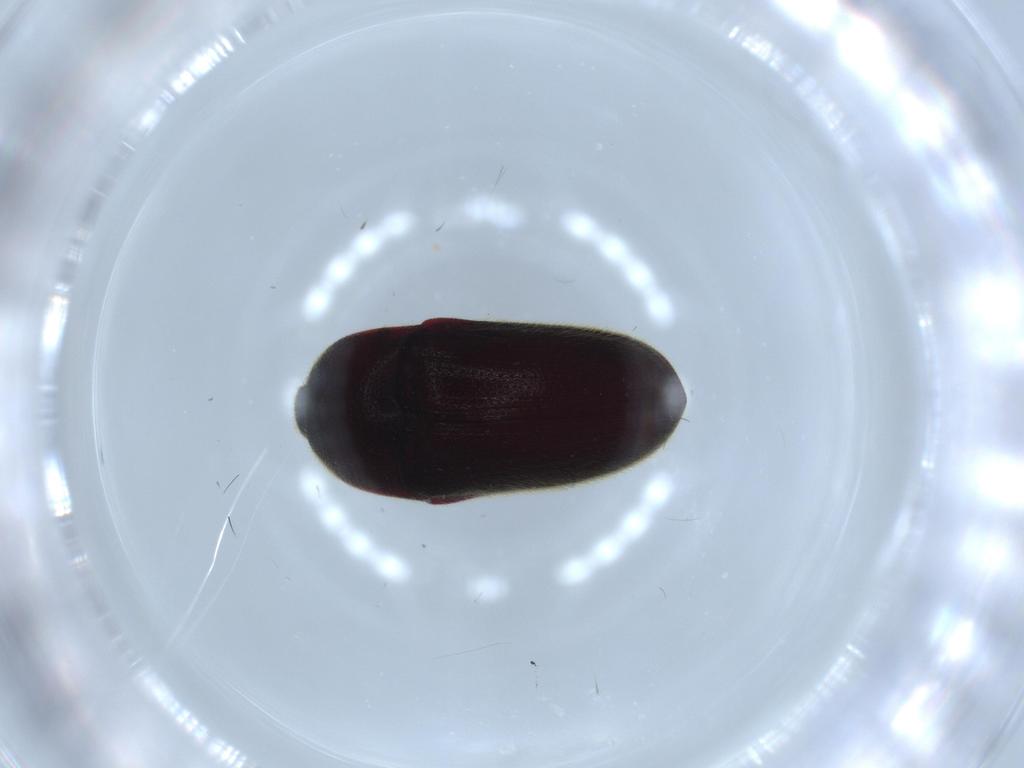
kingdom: Animalia
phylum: Arthropoda
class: Insecta
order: Coleoptera
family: Throscidae
